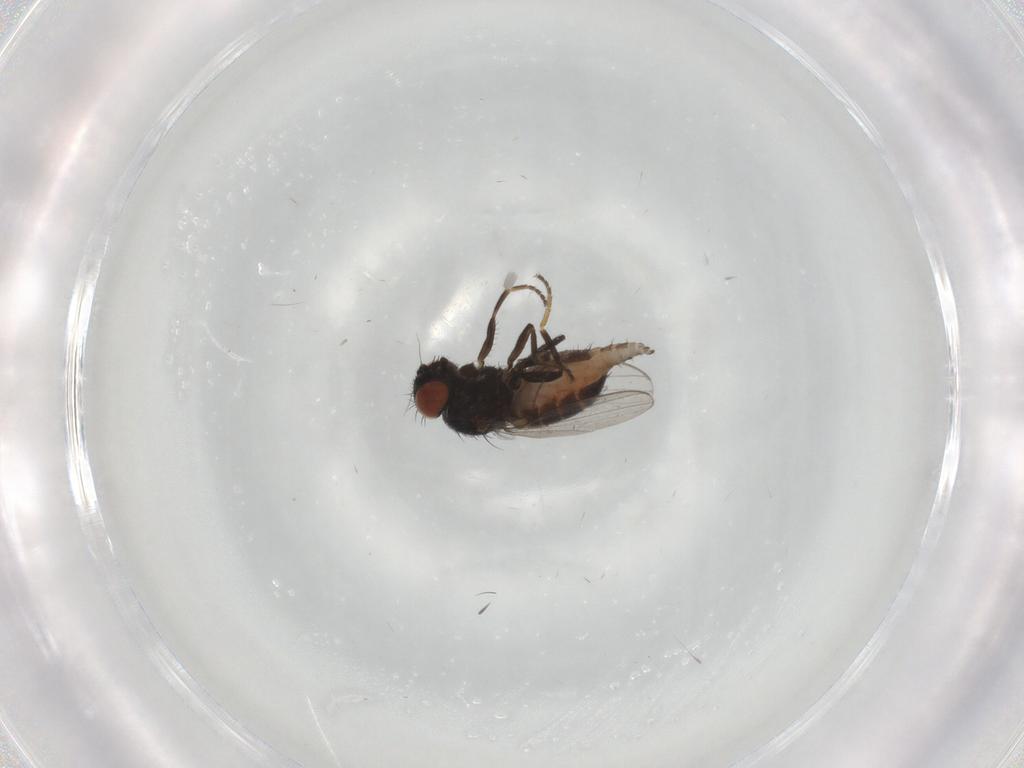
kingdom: Animalia
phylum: Arthropoda
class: Insecta
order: Diptera
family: Milichiidae
